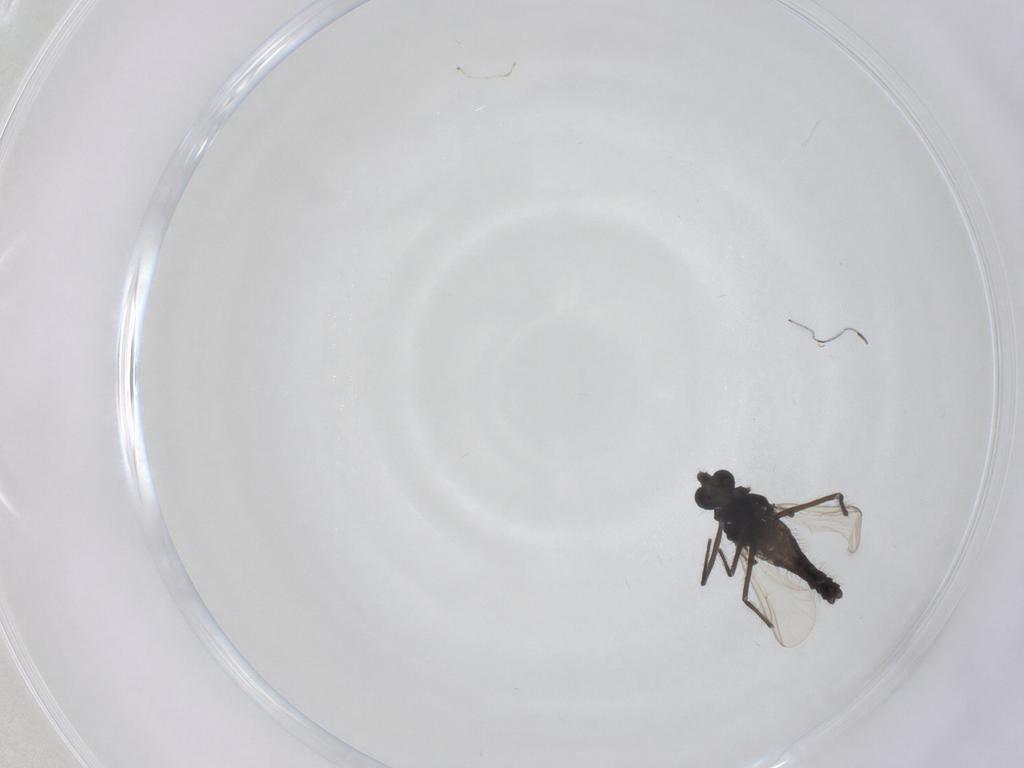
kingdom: Animalia
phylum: Arthropoda
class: Insecta
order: Diptera
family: Chironomidae
